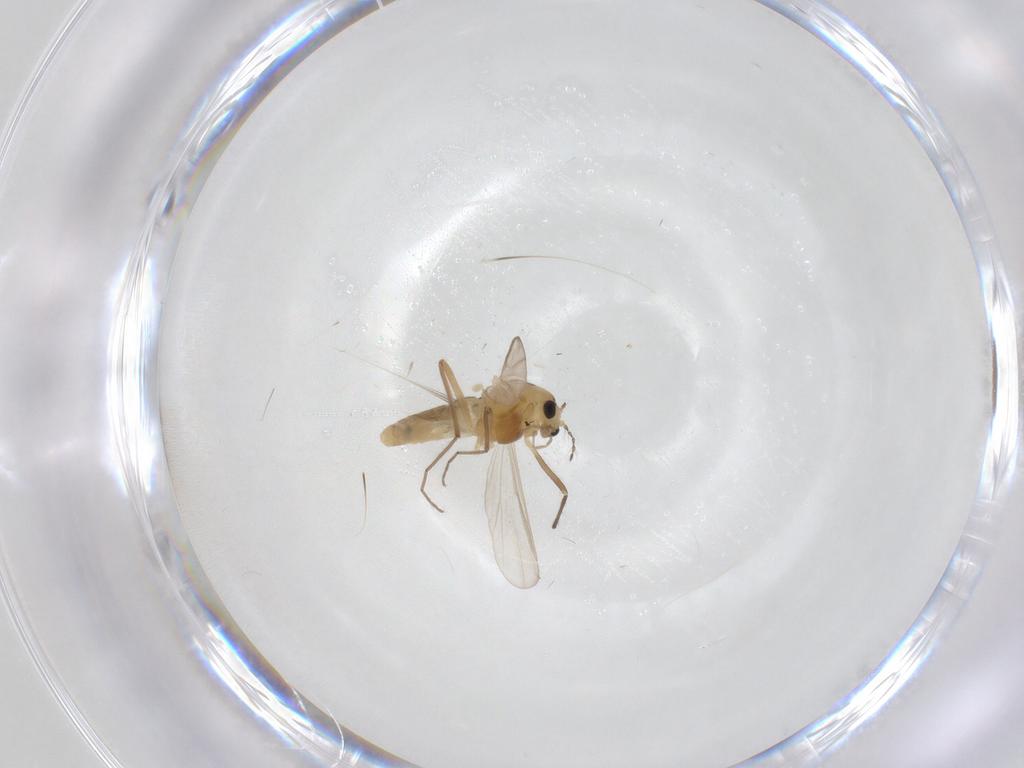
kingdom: Animalia
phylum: Arthropoda
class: Insecta
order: Diptera
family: Chironomidae
